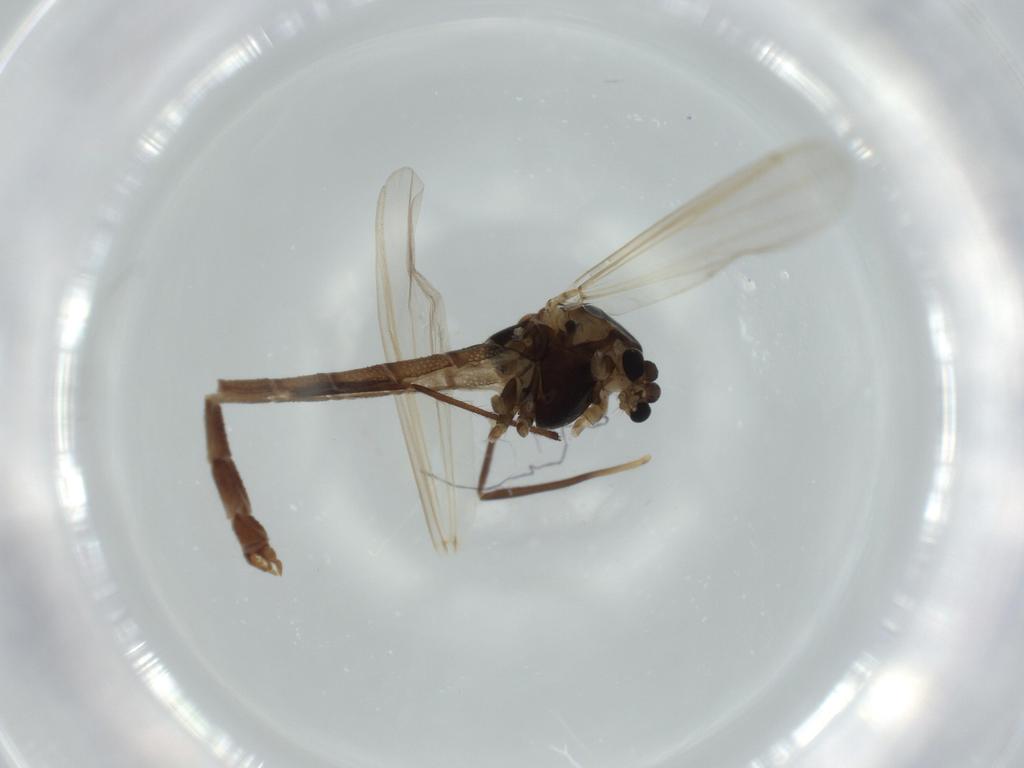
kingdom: Animalia
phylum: Arthropoda
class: Insecta
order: Diptera
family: Chironomidae
